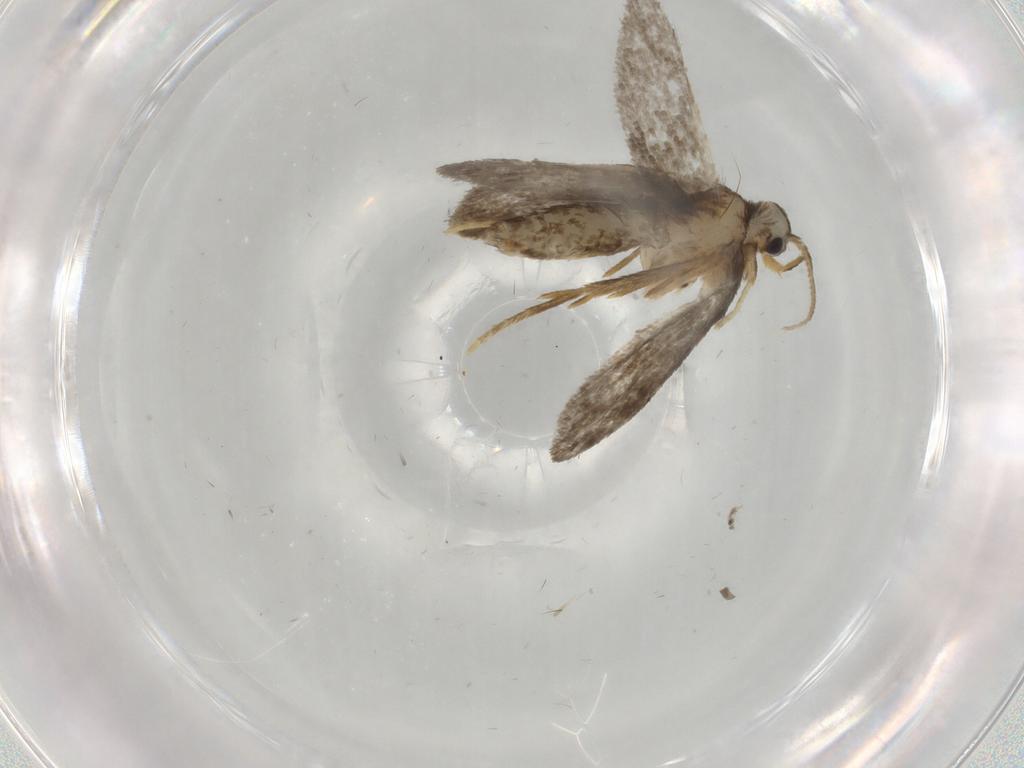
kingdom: Animalia
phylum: Arthropoda
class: Insecta
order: Lepidoptera
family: Psychidae
